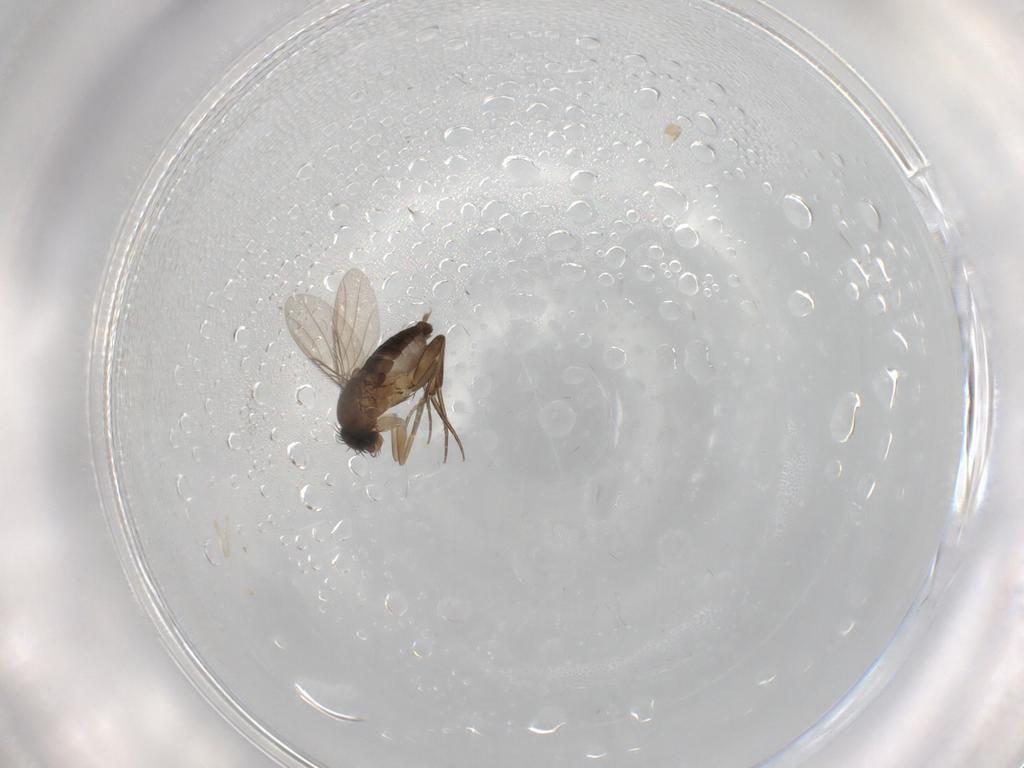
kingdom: Animalia
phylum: Arthropoda
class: Insecta
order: Diptera
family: Phoridae
